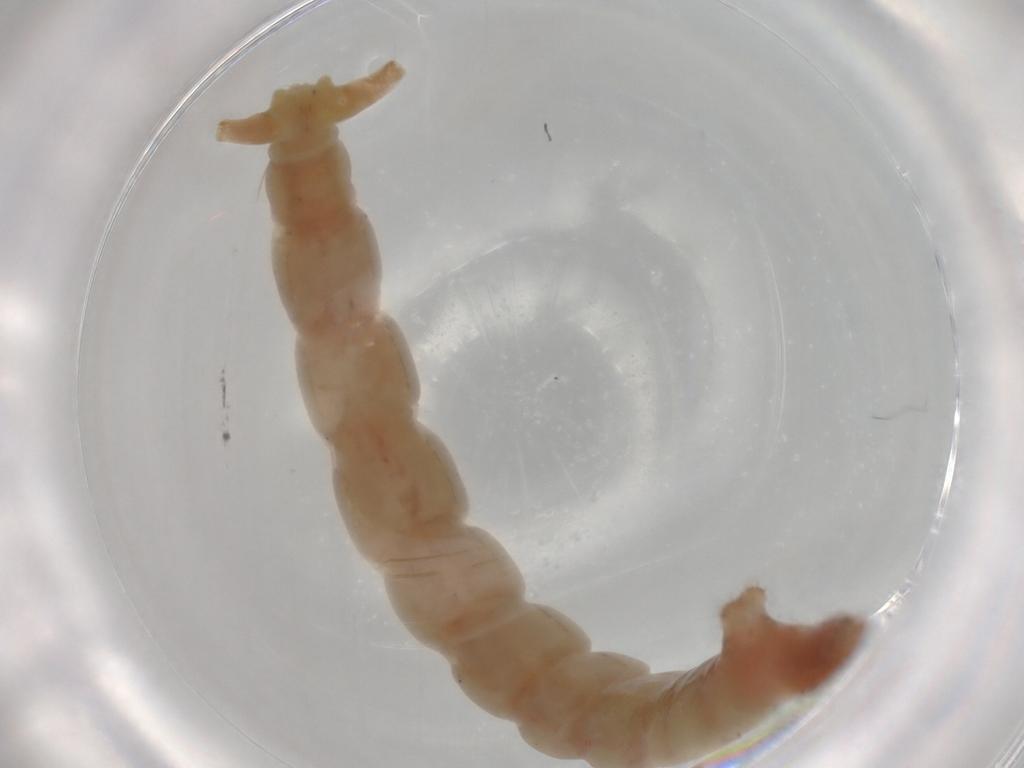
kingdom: Animalia
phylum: Arthropoda
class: Insecta
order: Diptera
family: Chironomidae
